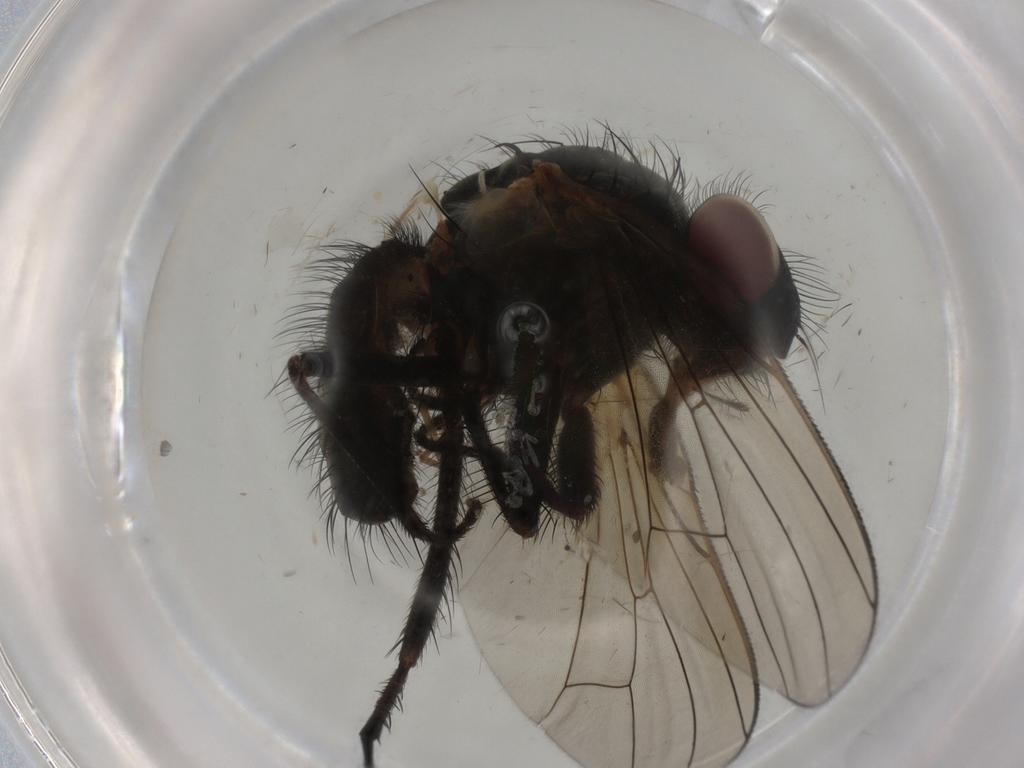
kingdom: Animalia
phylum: Arthropoda
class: Insecta
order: Diptera
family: Anthomyiidae
